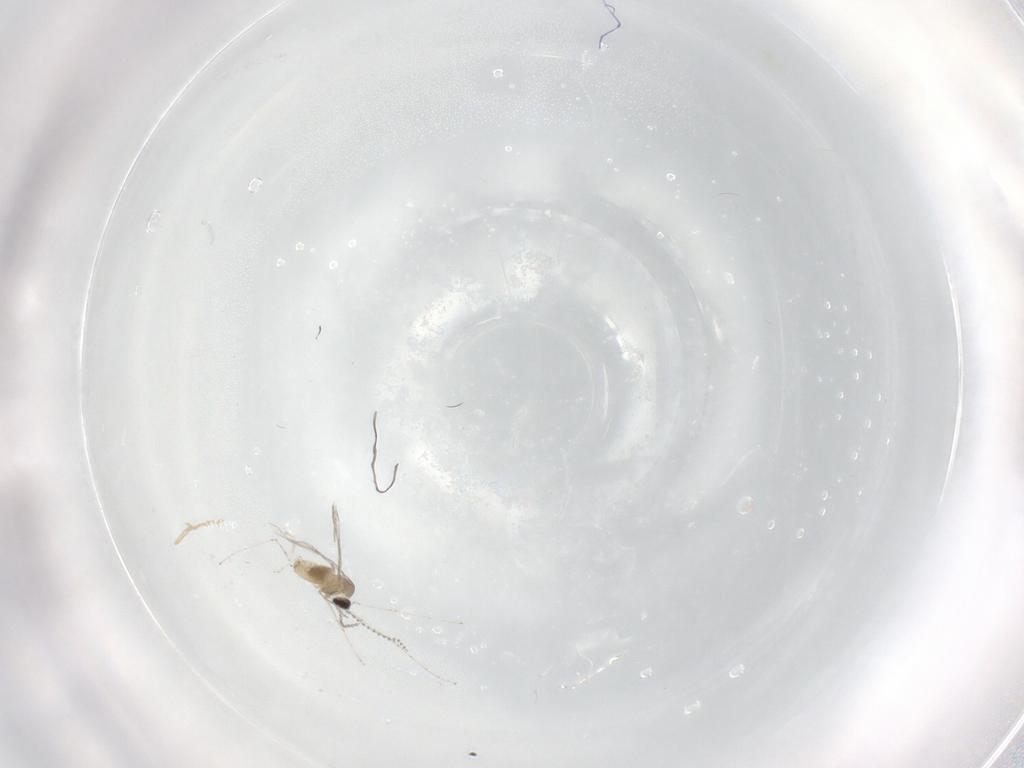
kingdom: Animalia
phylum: Arthropoda
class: Insecta
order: Diptera
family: Cecidomyiidae
